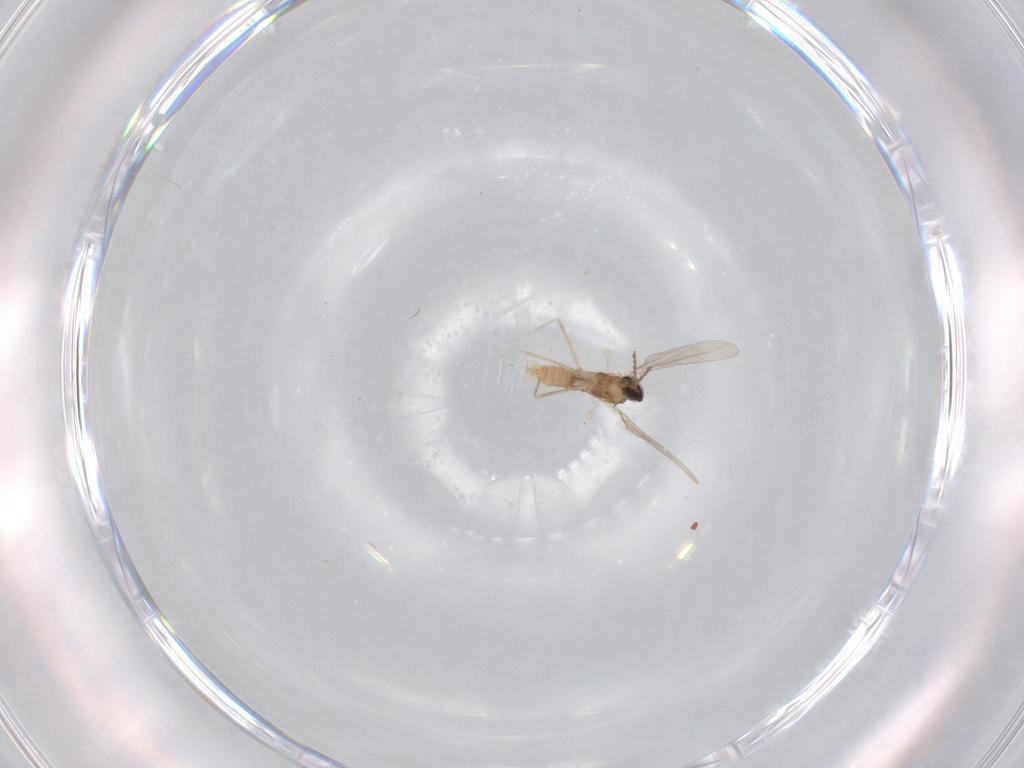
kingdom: Animalia
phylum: Arthropoda
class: Insecta
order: Diptera
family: Cecidomyiidae
